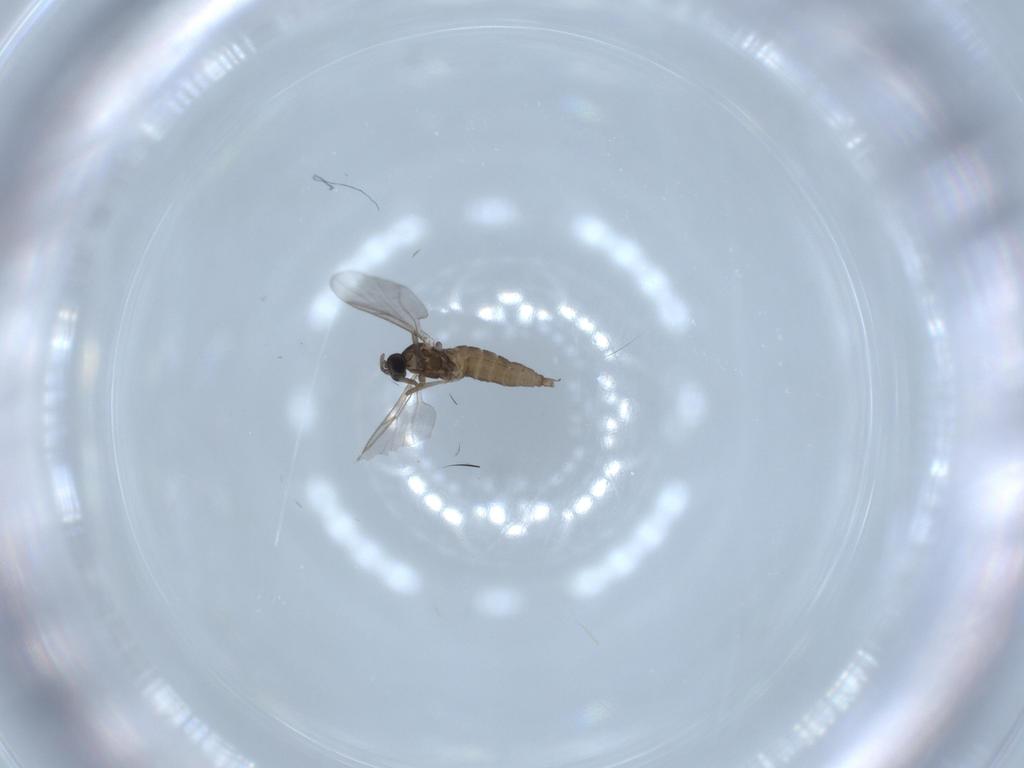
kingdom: Animalia
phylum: Arthropoda
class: Insecta
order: Diptera
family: Cecidomyiidae
